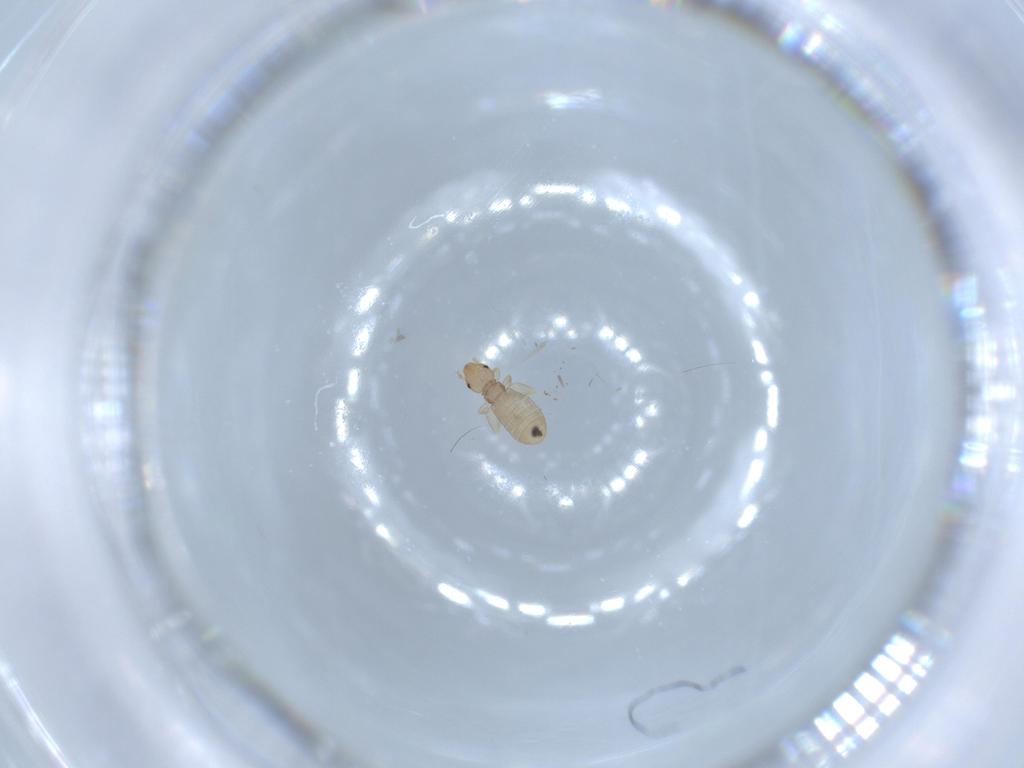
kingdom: Animalia
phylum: Arthropoda
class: Insecta
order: Psocodea
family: Liposcelididae
